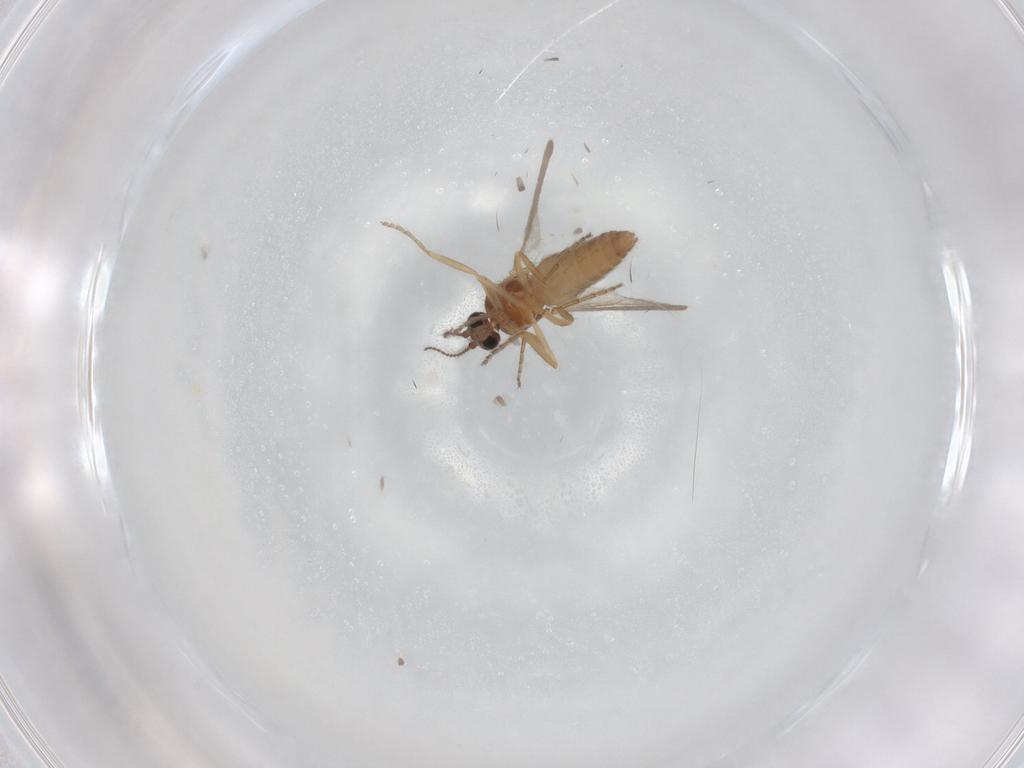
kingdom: Animalia
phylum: Arthropoda
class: Insecta
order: Diptera
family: Ceratopogonidae
